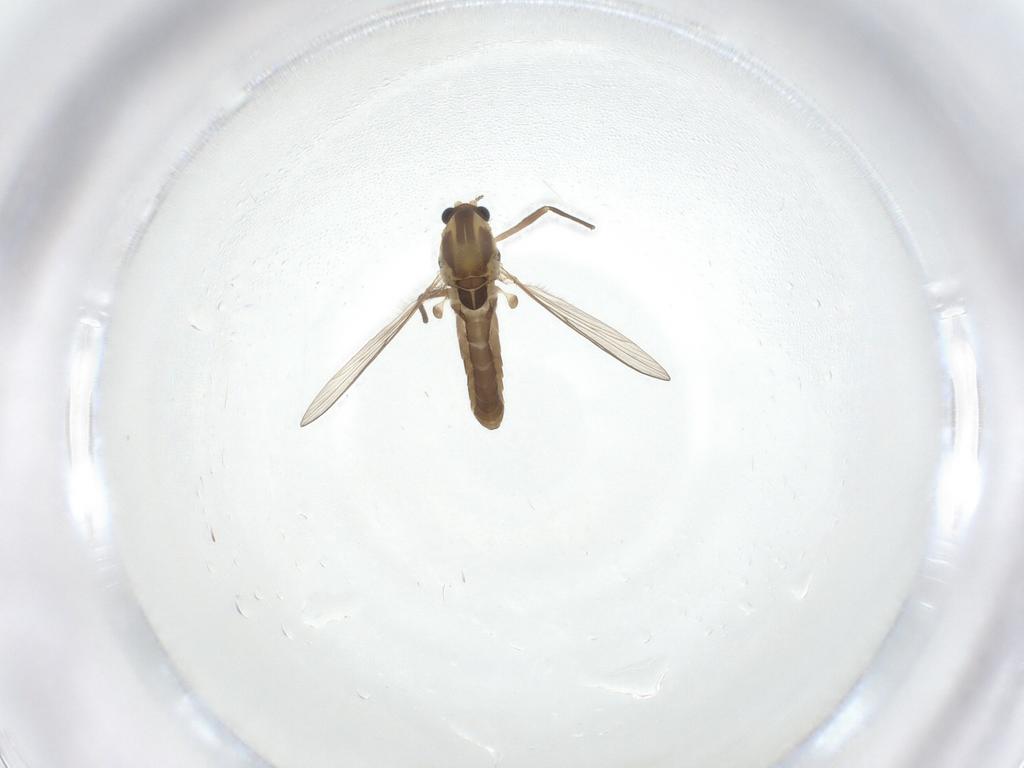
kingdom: Animalia
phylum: Arthropoda
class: Insecta
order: Diptera
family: Chironomidae
